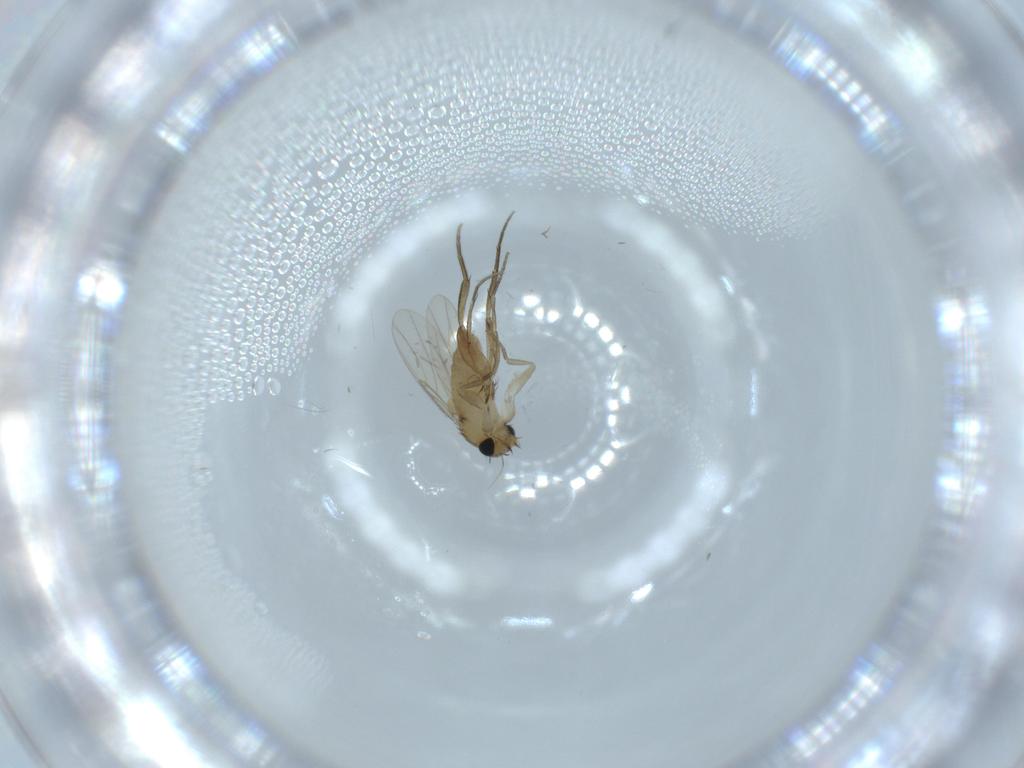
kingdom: Animalia
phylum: Arthropoda
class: Insecta
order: Diptera
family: Phoridae
